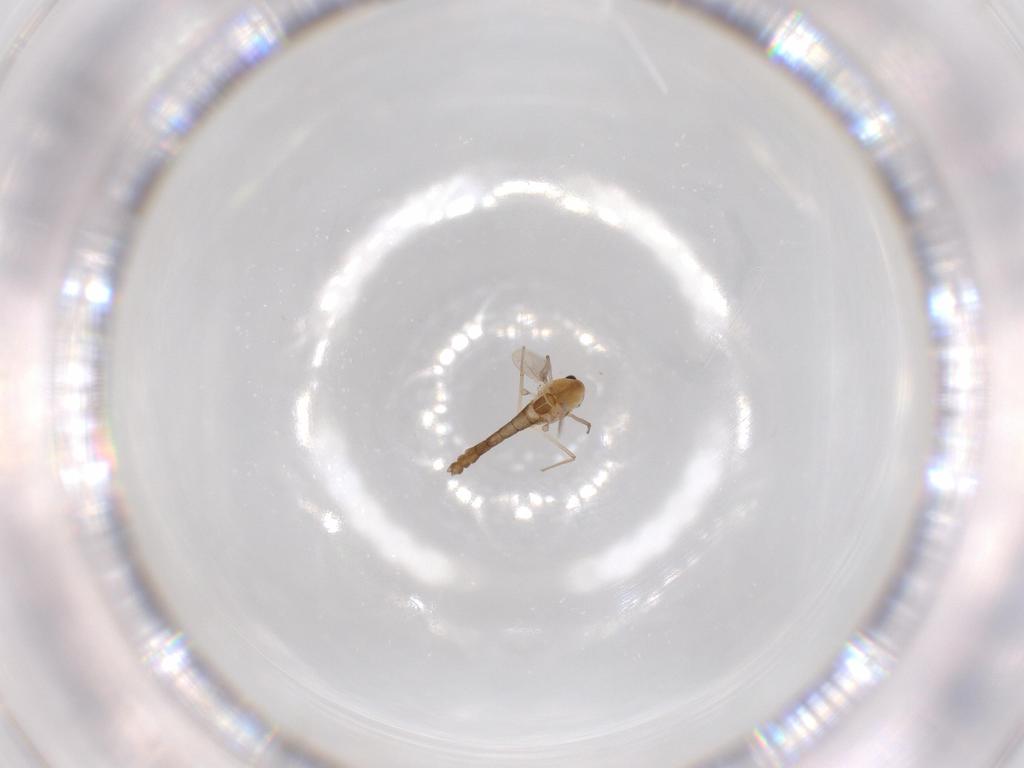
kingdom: Animalia
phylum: Arthropoda
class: Insecta
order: Diptera
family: Chironomidae
